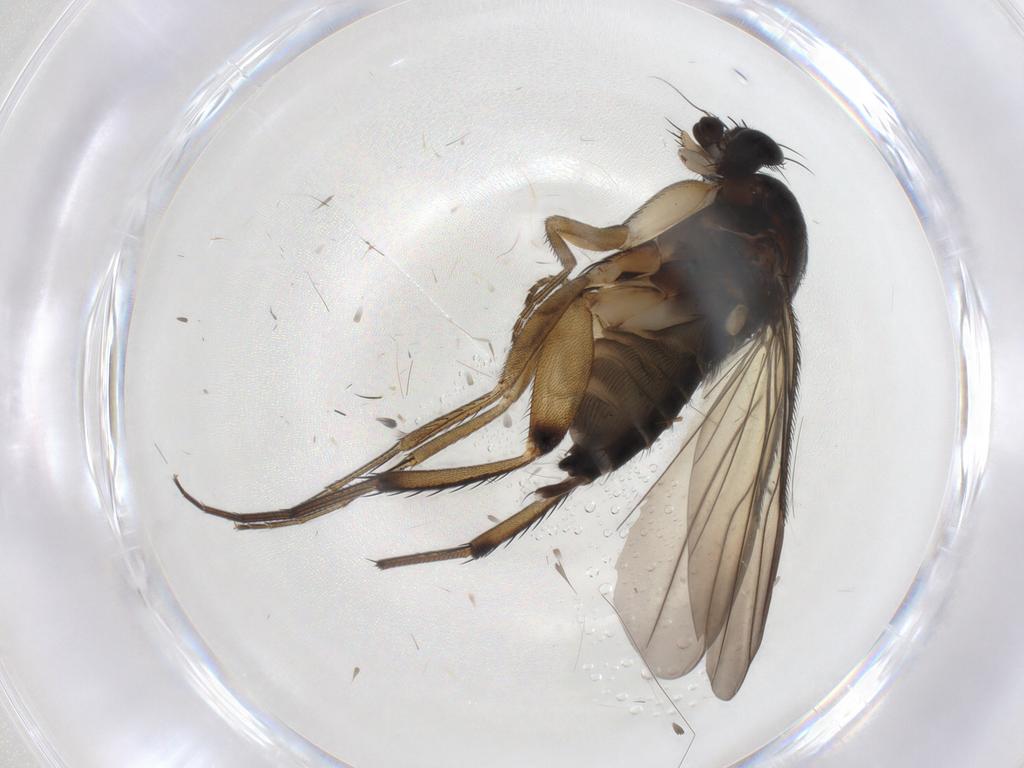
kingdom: Animalia
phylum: Arthropoda
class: Insecta
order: Diptera
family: Phoridae
